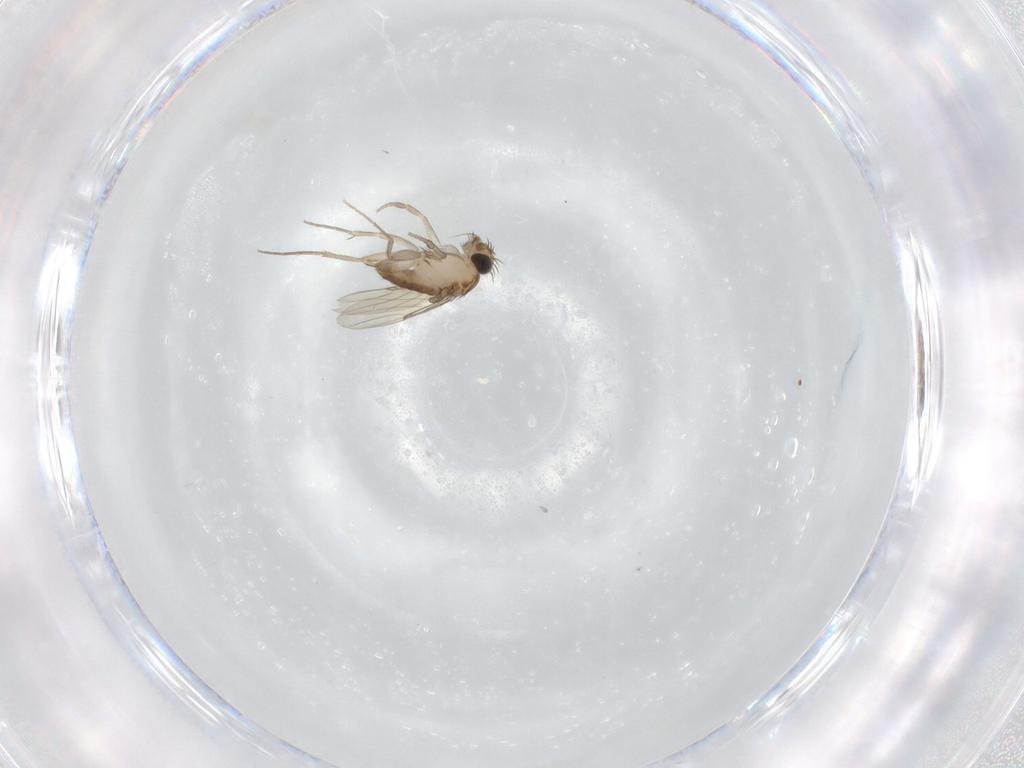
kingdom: Animalia
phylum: Arthropoda
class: Insecta
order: Diptera
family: Phoridae
